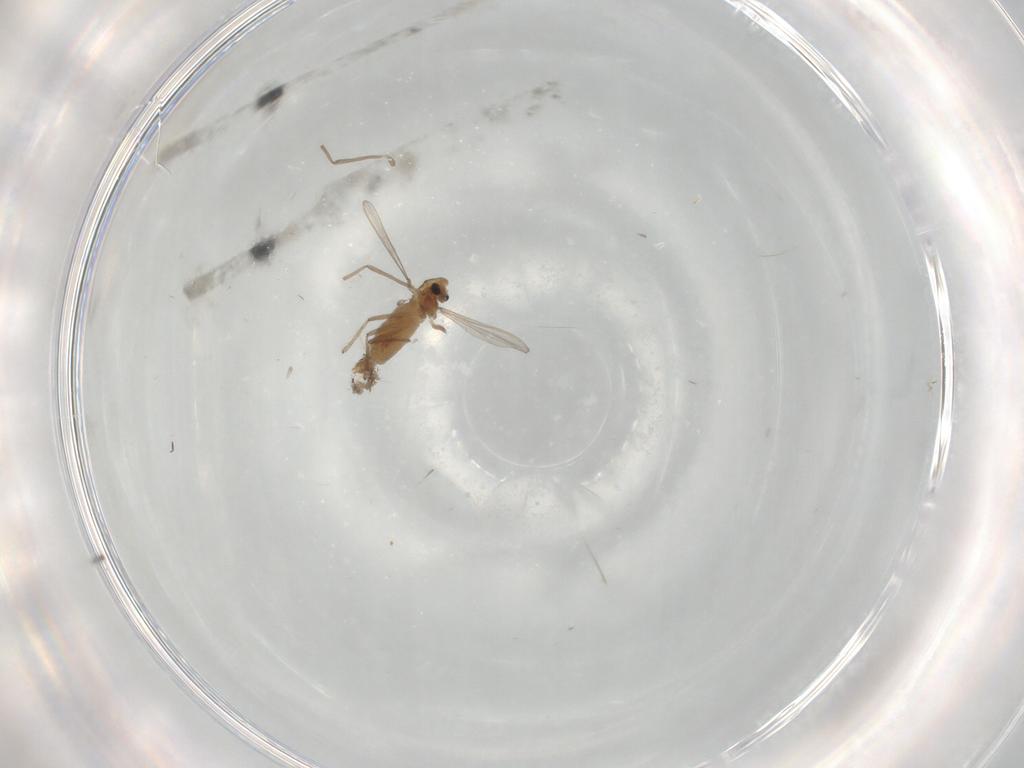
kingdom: Animalia
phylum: Arthropoda
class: Insecta
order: Diptera
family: Chironomidae
